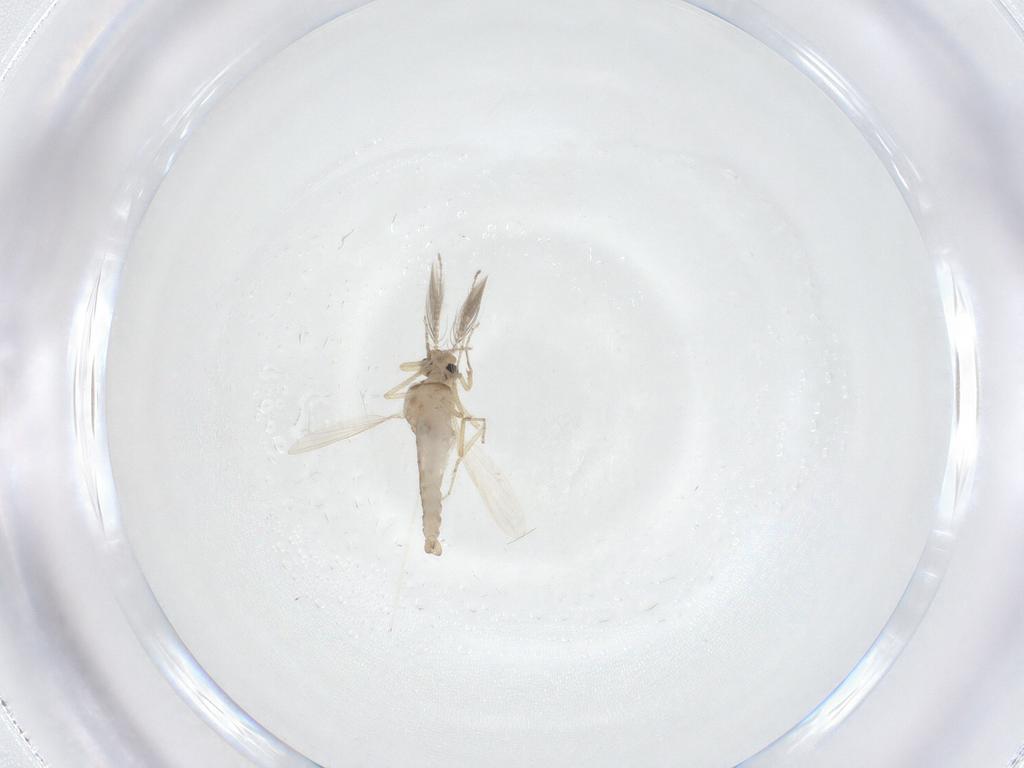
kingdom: Animalia
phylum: Arthropoda
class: Insecta
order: Diptera
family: Ceratopogonidae
